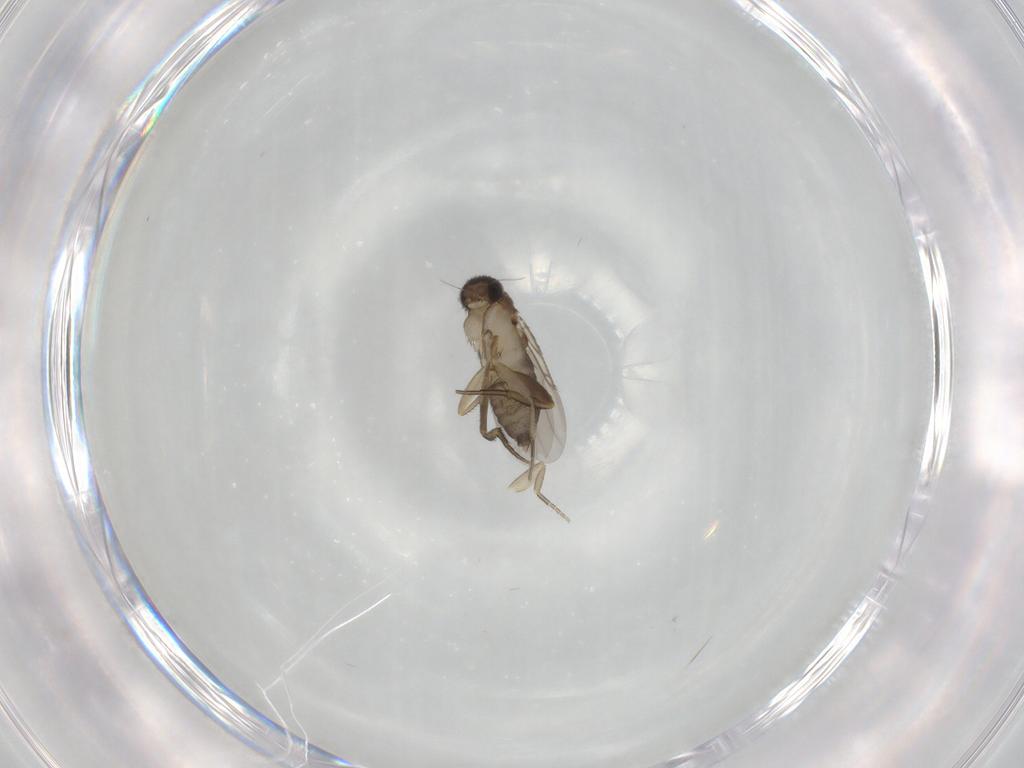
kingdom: Animalia
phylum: Arthropoda
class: Insecta
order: Diptera
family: Phoridae
